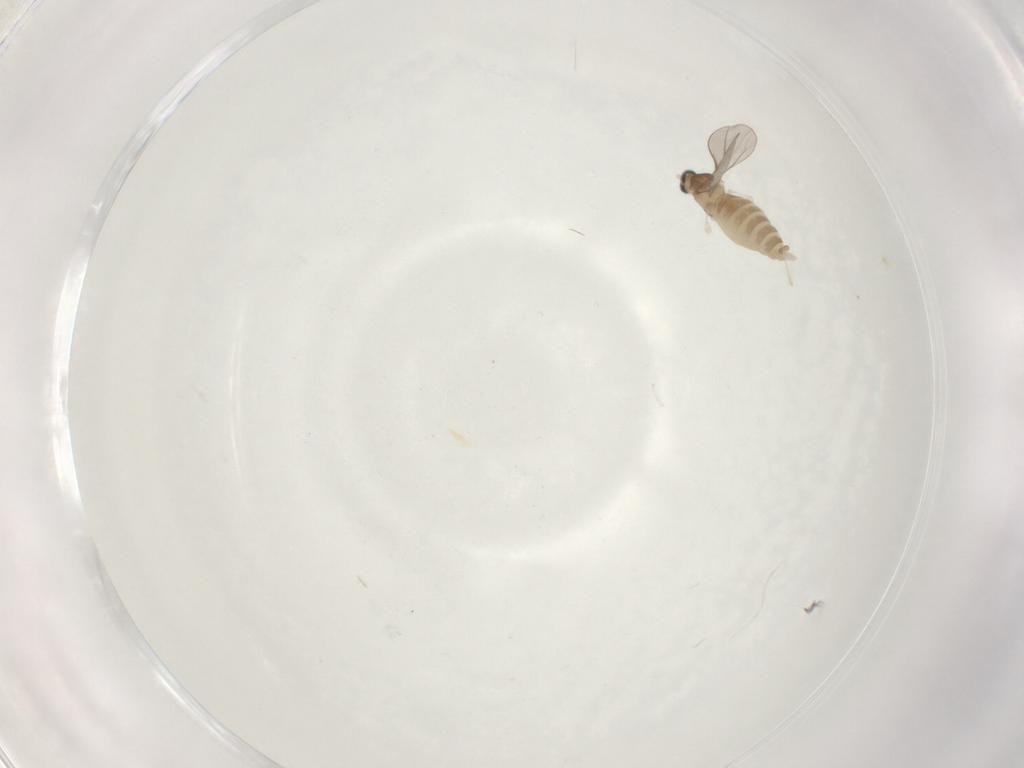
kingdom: Animalia
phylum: Arthropoda
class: Insecta
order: Diptera
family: Cecidomyiidae
